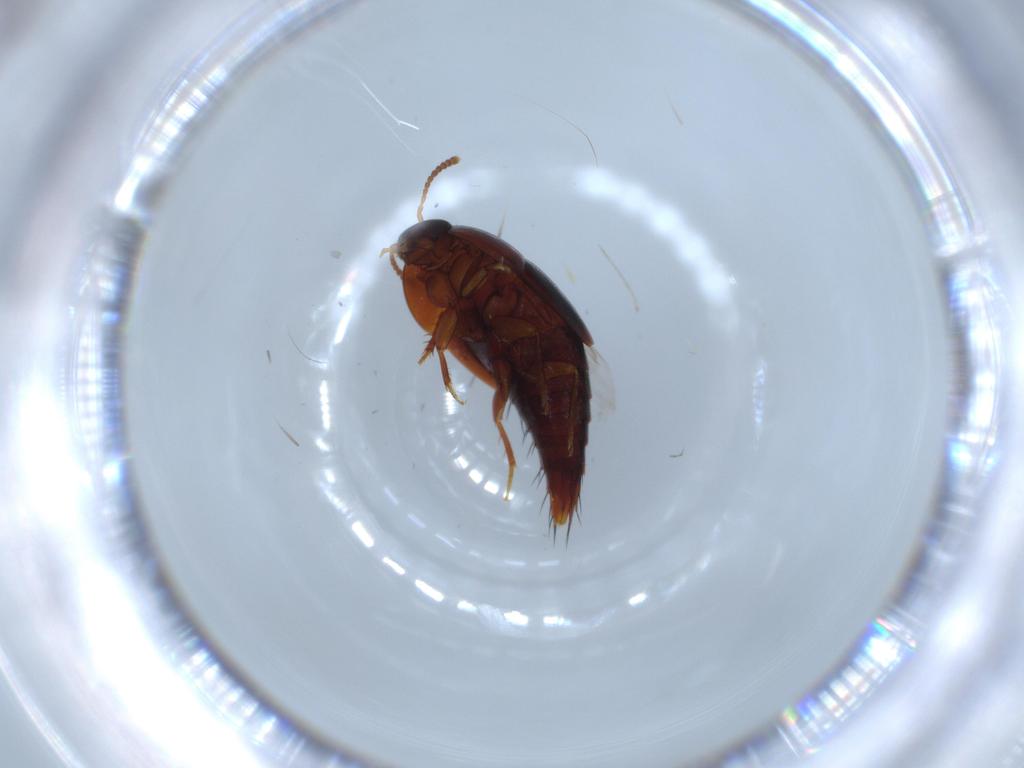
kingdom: Animalia
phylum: Arthropoda
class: Insecta
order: Coleoptera
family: Staphylinidae
